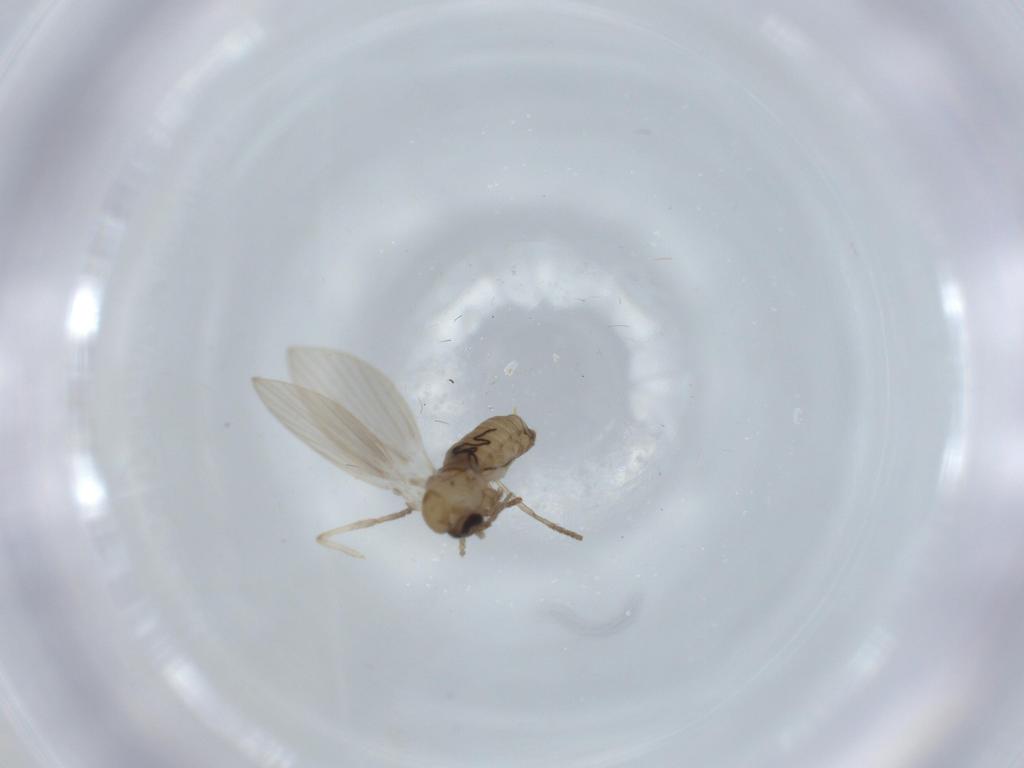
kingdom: Animalia
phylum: Arthropoda
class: Insecta
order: Diptera
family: Psychodidae
